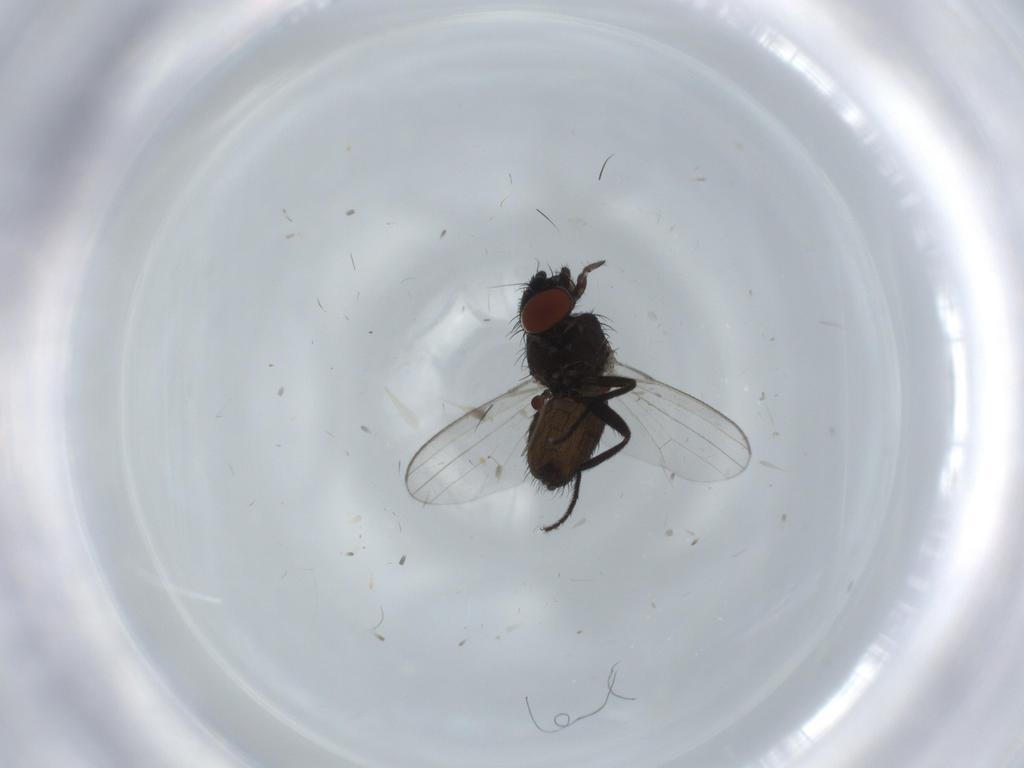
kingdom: Animalia
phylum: Arthropoda
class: Insecta
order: Diptera
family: Milichiidae
